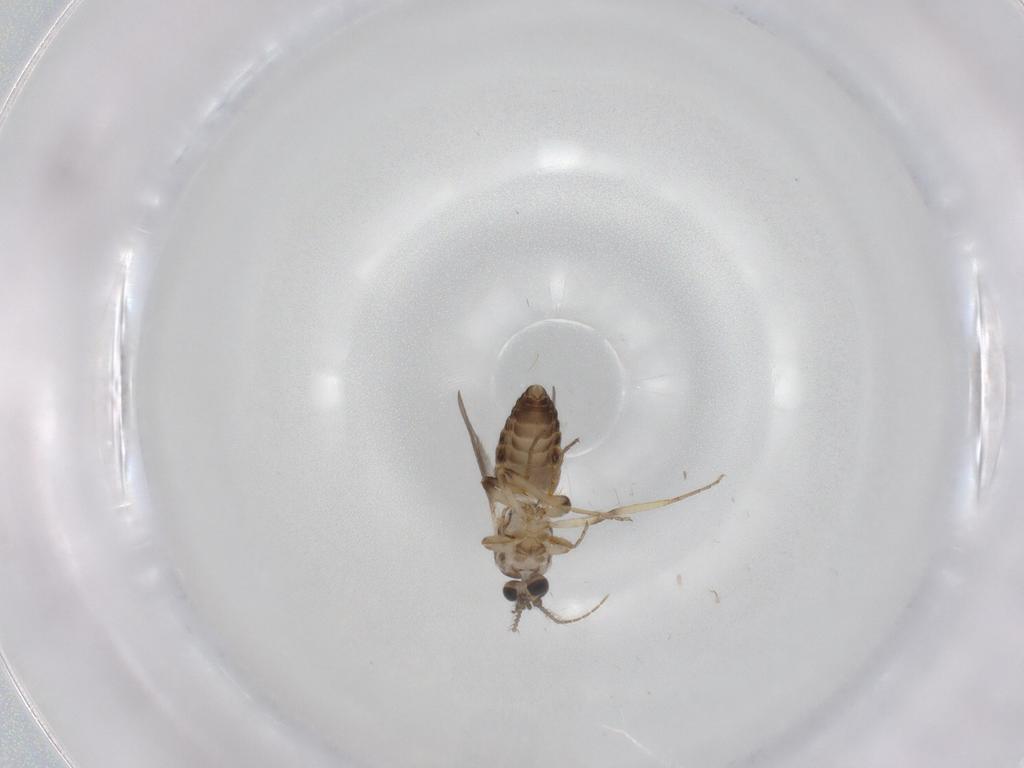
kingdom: Animalia
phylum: Arthropoda
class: Insecta
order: Diptera
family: Ceratopogonidae
